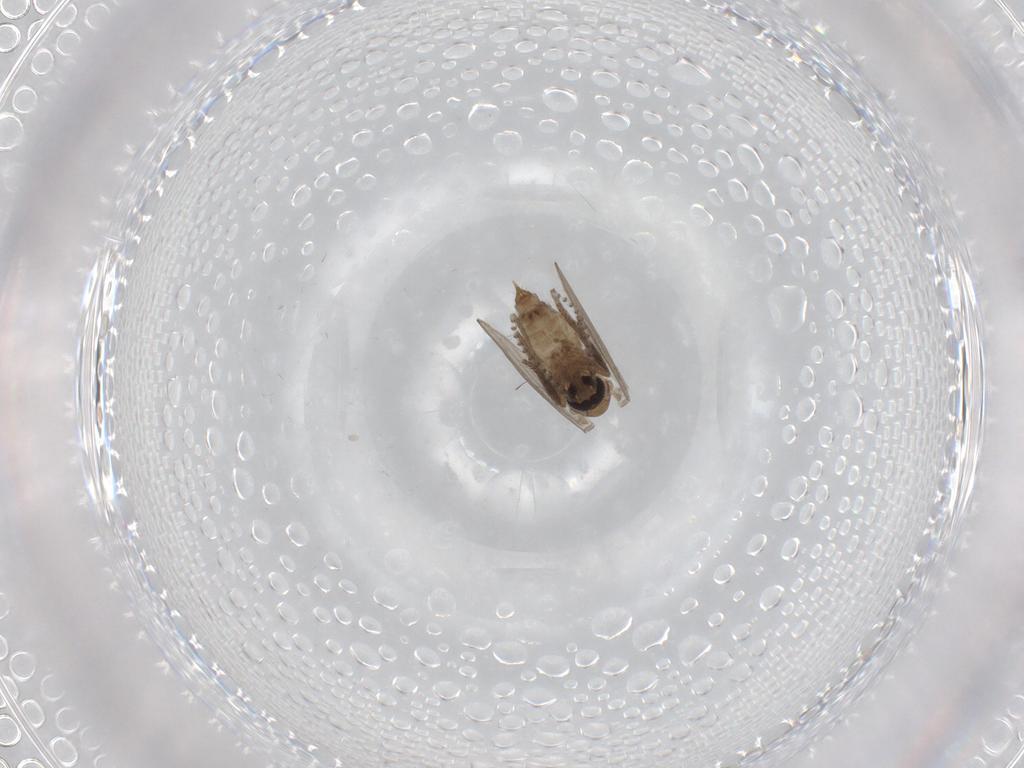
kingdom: Animalia
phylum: Arthropoda
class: Insecta
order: Diptera
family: Psychodidae
